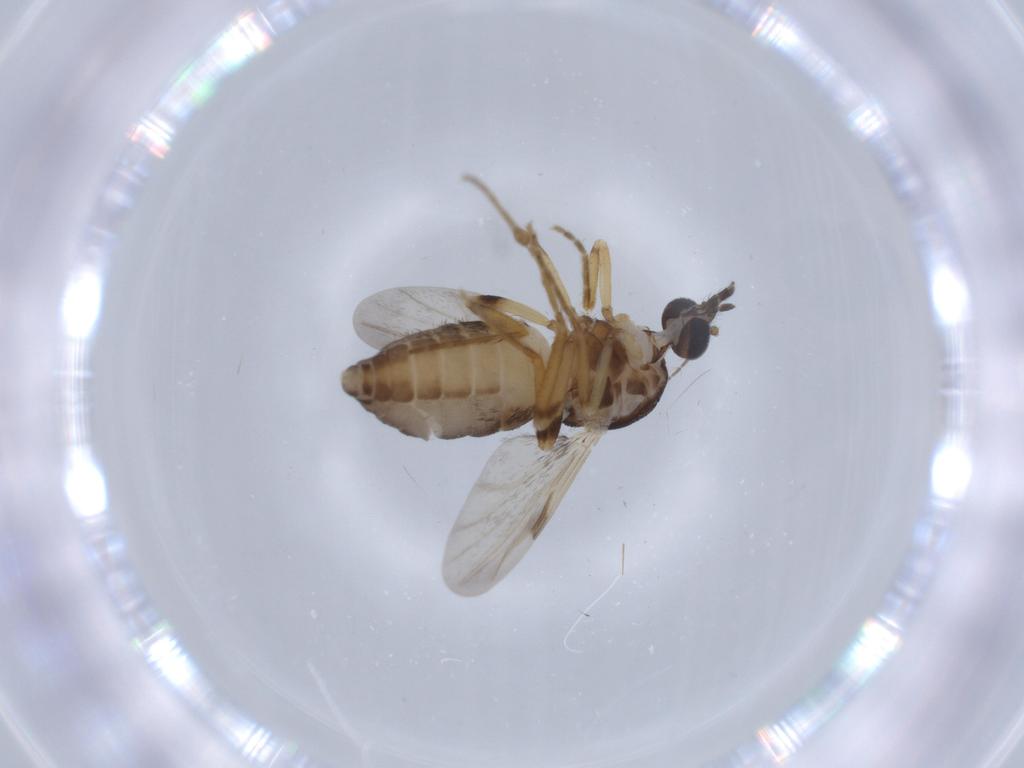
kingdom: Animalia
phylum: Arthropoda
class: Insecta
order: Diptera
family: Ceratopogonidae
